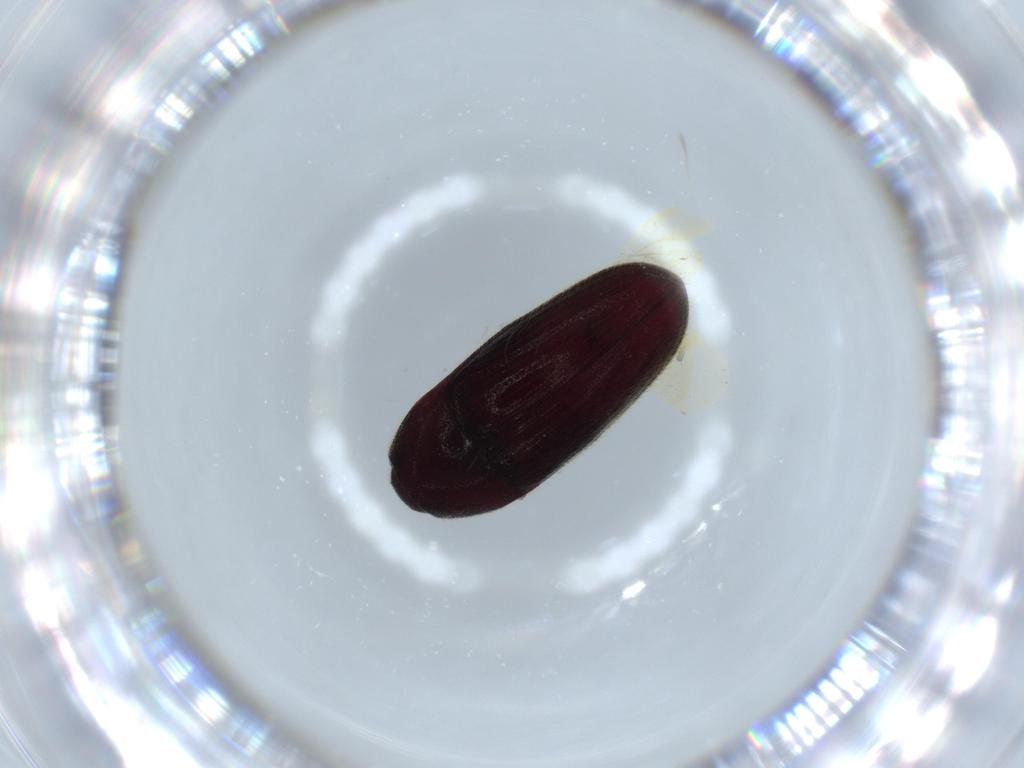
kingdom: Animalia
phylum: Arthropoda
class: Insecta
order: Coleoptera
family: Throscidae
